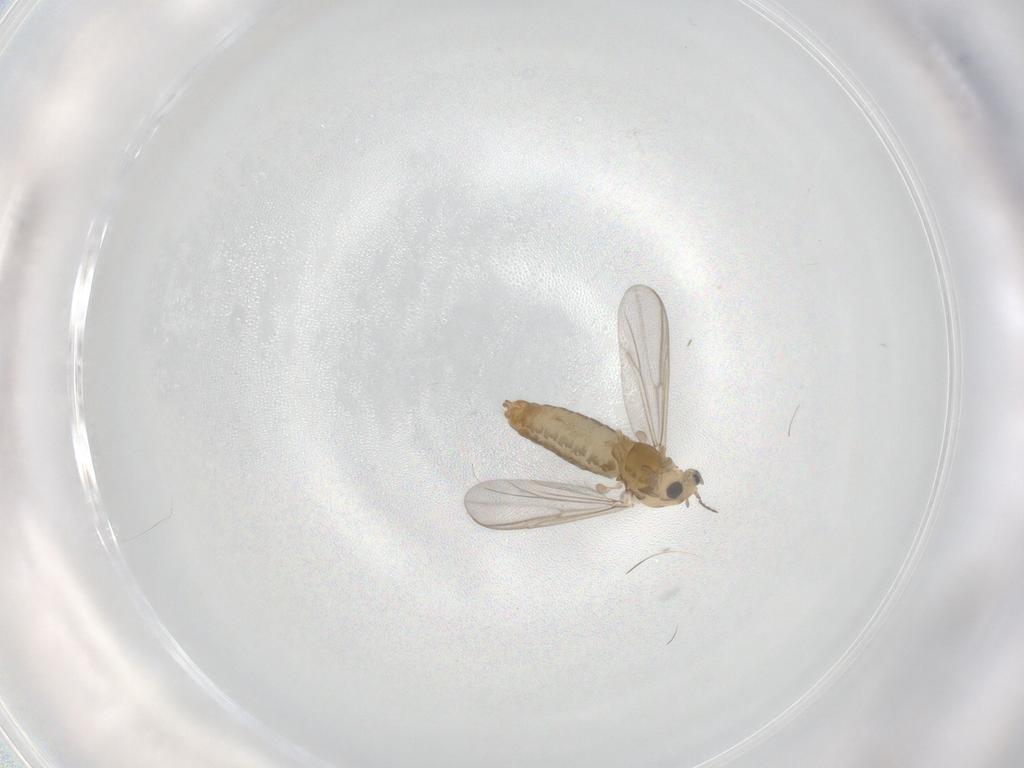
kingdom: Animalia
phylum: Arthropoda
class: Insecta
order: Diptera
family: Chironomidae
